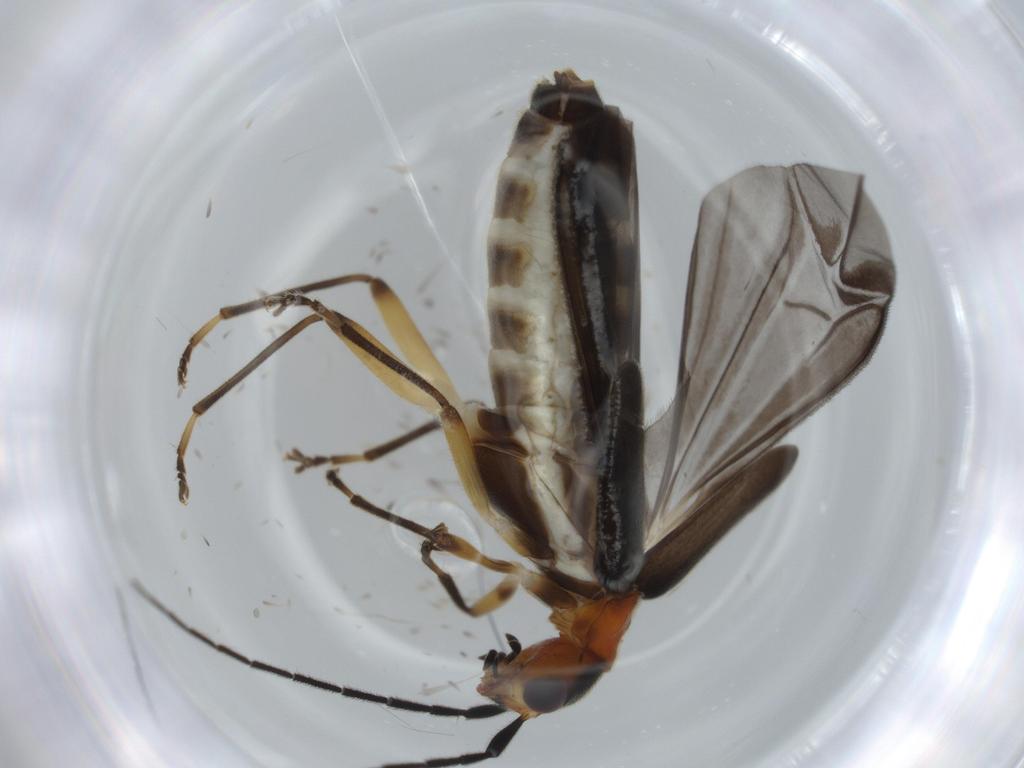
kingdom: Animalia
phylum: Arthropoda
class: Insecta
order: Coleoptera
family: Cantharidae
